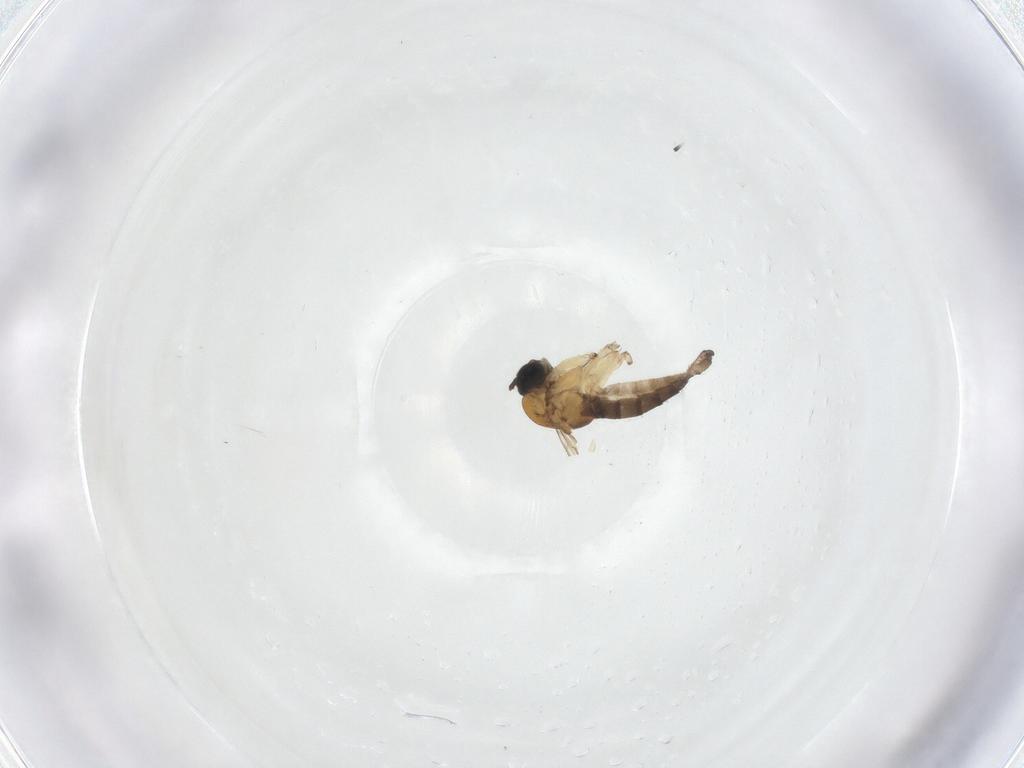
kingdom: Animalia
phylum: Arthropoda
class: Insecta
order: Diptera
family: Sciaridae
